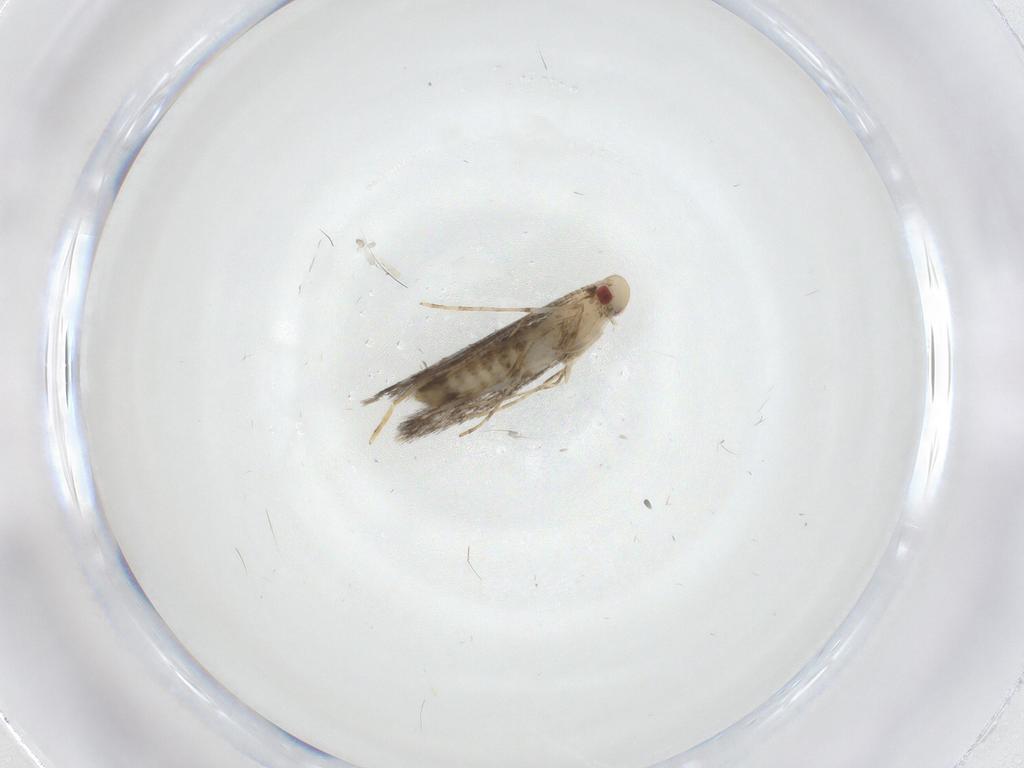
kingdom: Animalia
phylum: Arthropoda
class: Insecta
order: Lepidoptera
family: Gracillariidae
